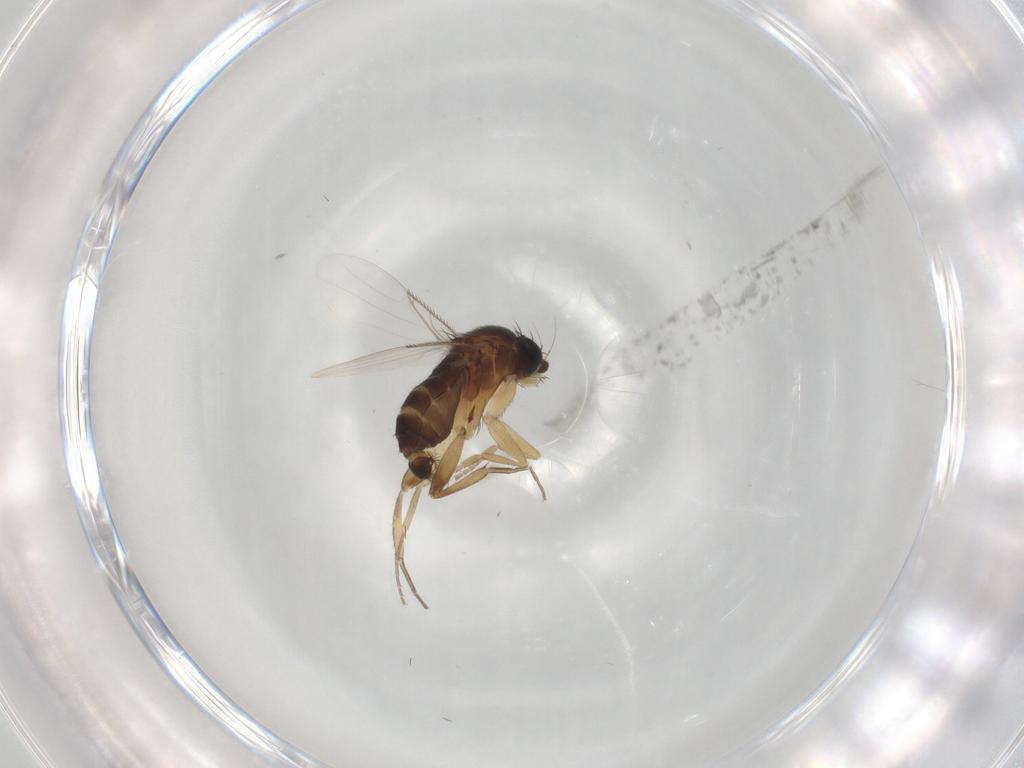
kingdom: Animalia
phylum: Arthropoda
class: Insecta
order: Diptera
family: Phoridae
